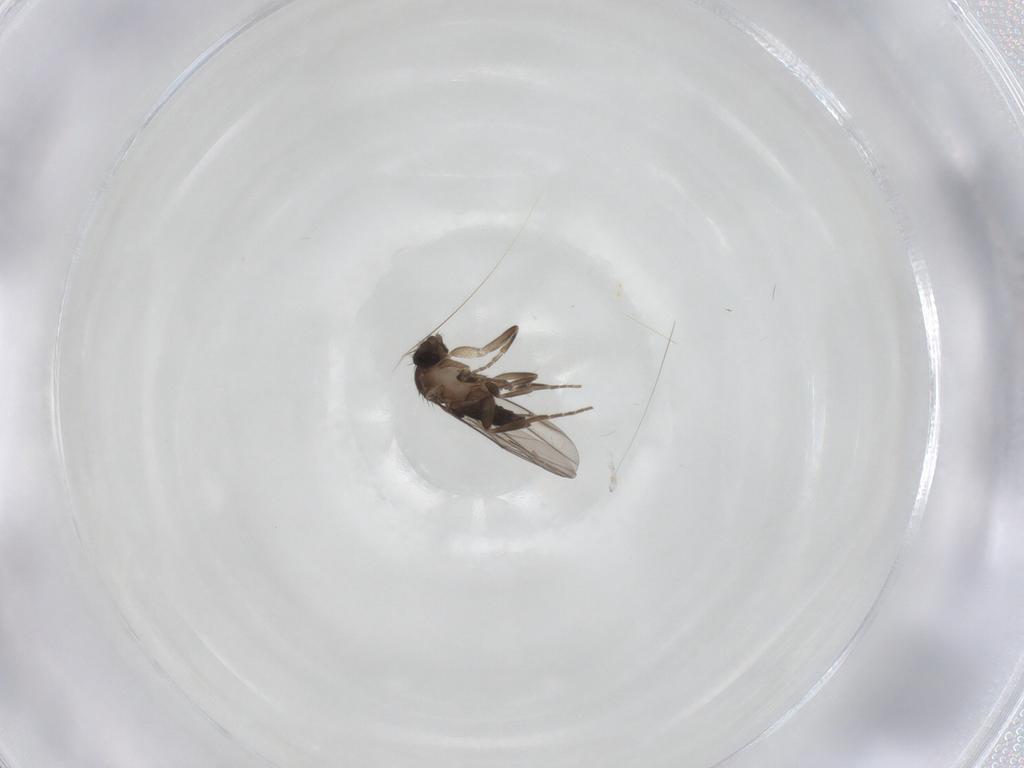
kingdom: Animalia
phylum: Arthropoda
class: Insecta
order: Diptera
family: Phoridae
